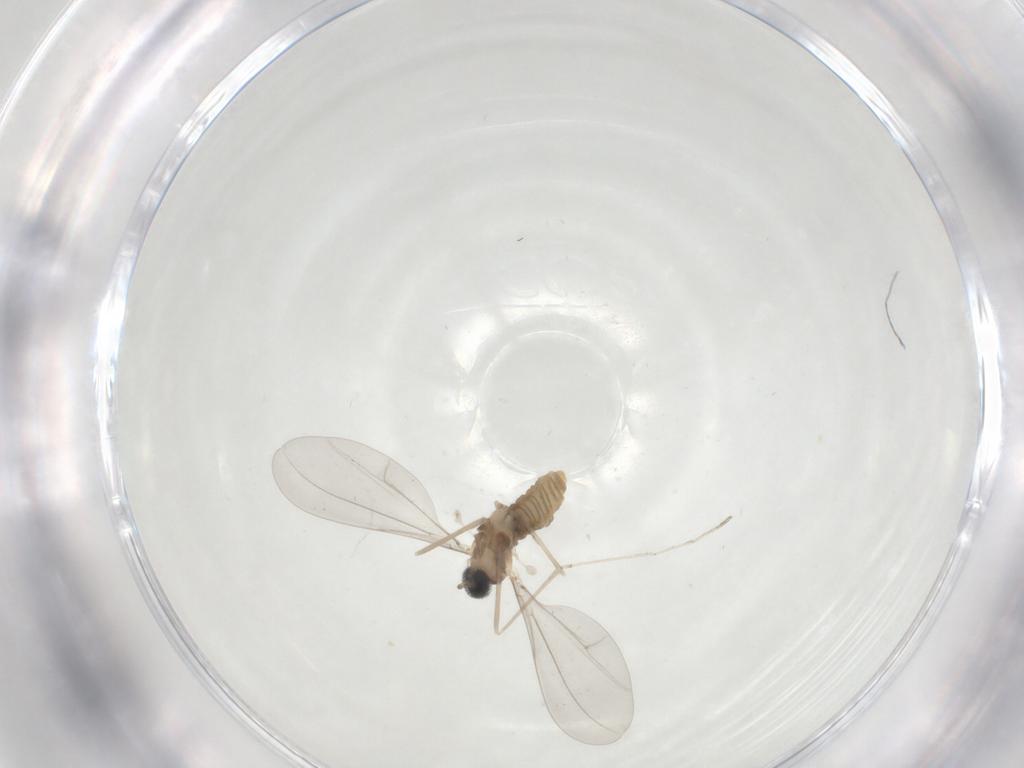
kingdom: Animalia
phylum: Arthropoda
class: Insecta
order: Diptera
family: Cecidomyiidae
